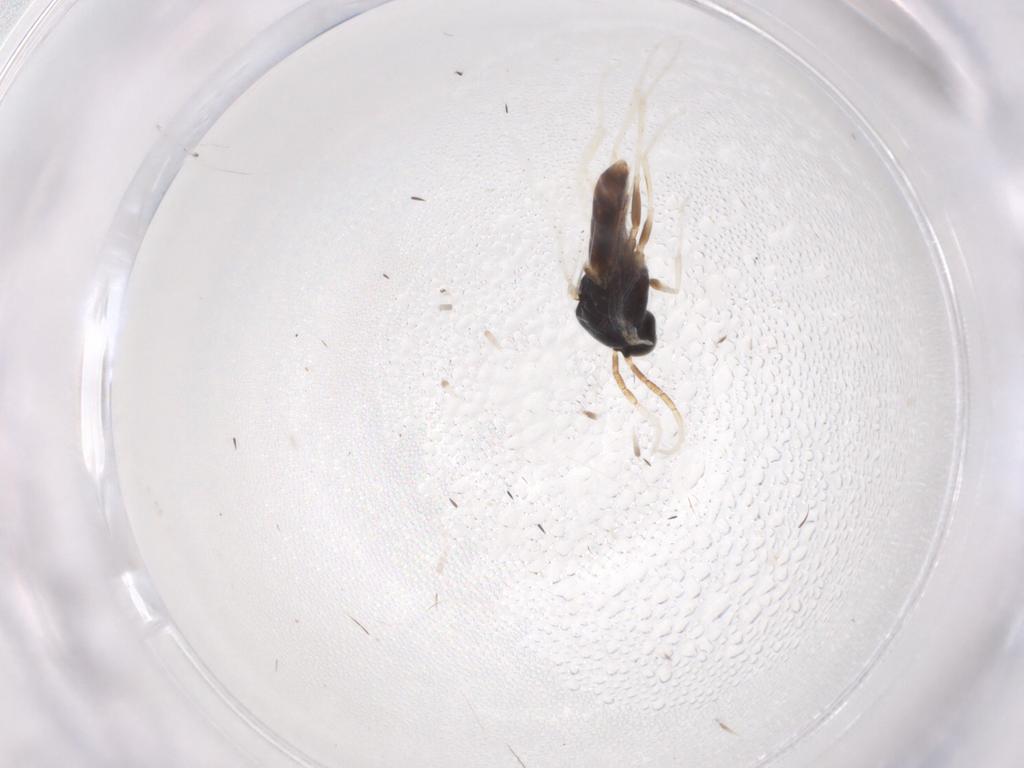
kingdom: Animalia
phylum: Arthropoda
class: Insecta
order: Diptera
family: Sciaridae
